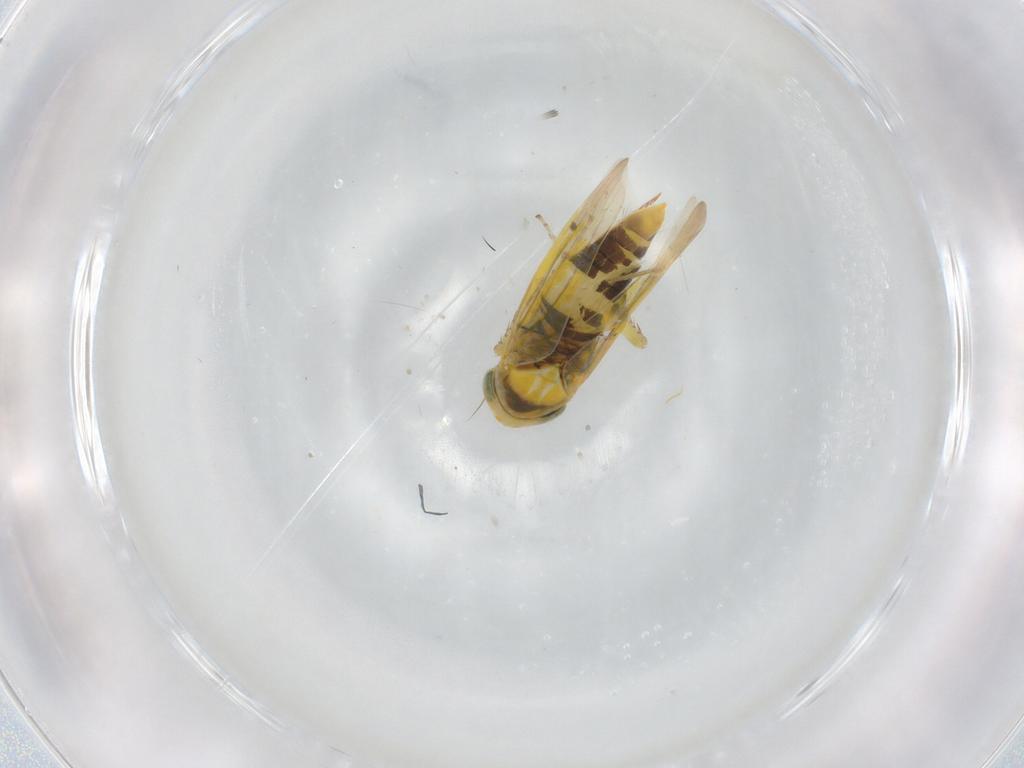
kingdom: Animalia
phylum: Arthropoda
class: Insecta
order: Hemiptera
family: Cicadellidae
